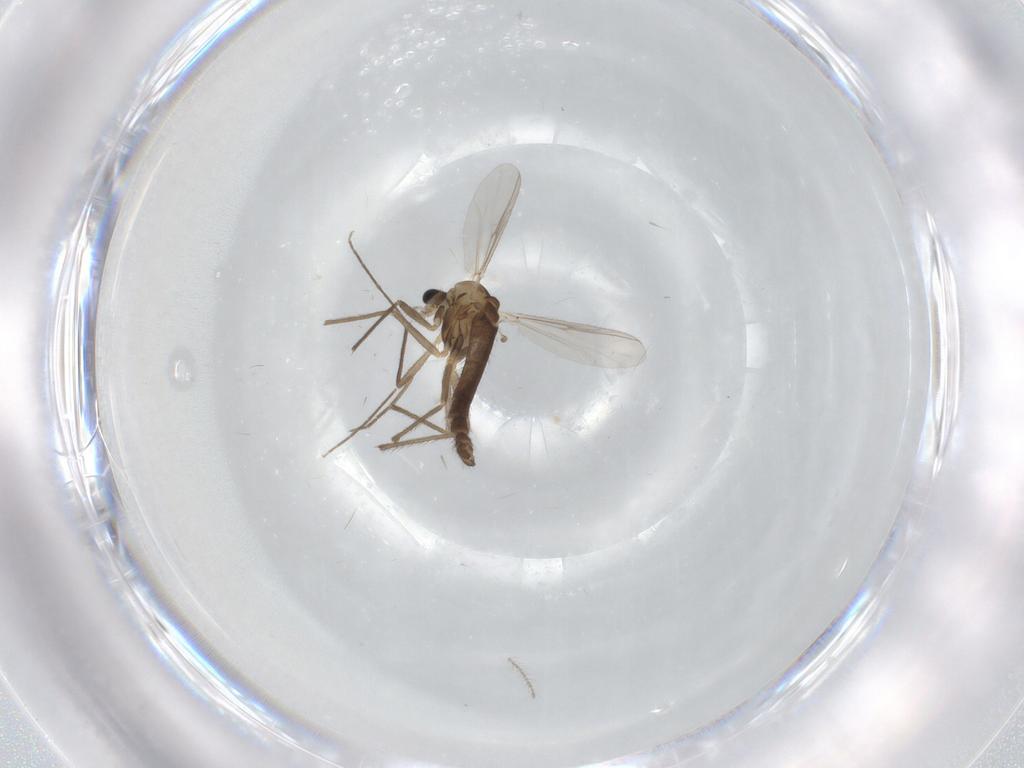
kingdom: Animalia
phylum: Arthropoda
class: Insecta
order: Diptera
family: Chironomidae
